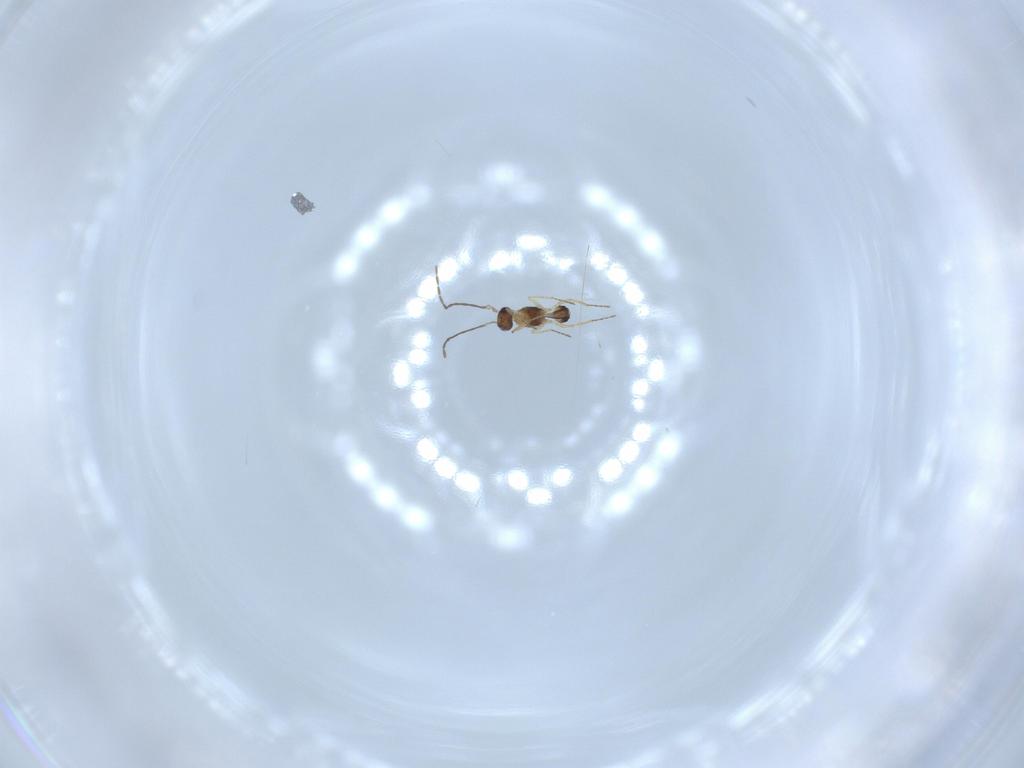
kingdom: Animalia
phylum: Arthropoda
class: Insecta
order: Hymenoptera
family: Mymaridae
